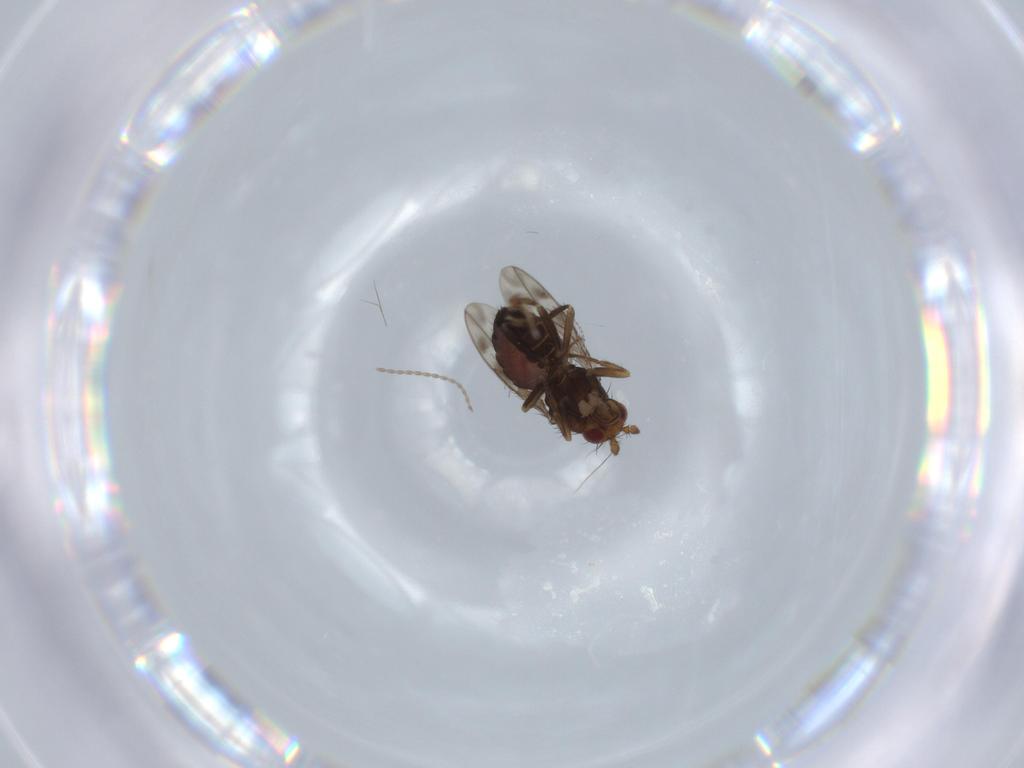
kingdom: Animalia
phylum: Arthropoda
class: Insecta
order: Diptera
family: Sphaeroceridae
